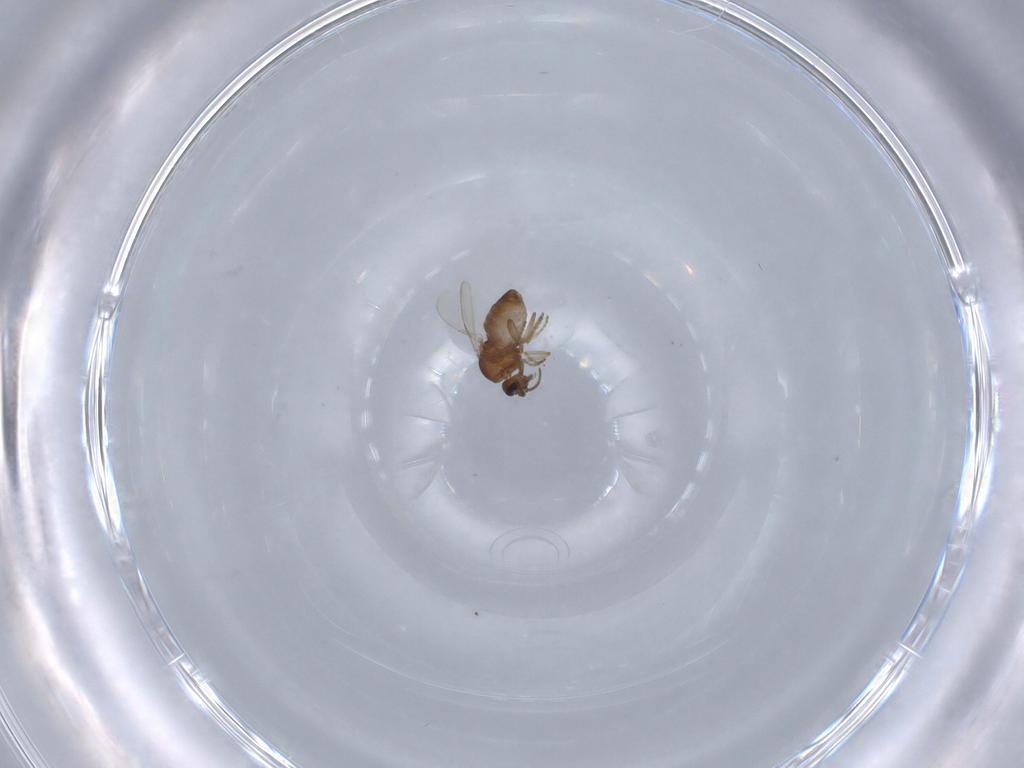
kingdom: Animalia
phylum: Arthropoda
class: Insecta
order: Diptera
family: Ceratopogonidae
